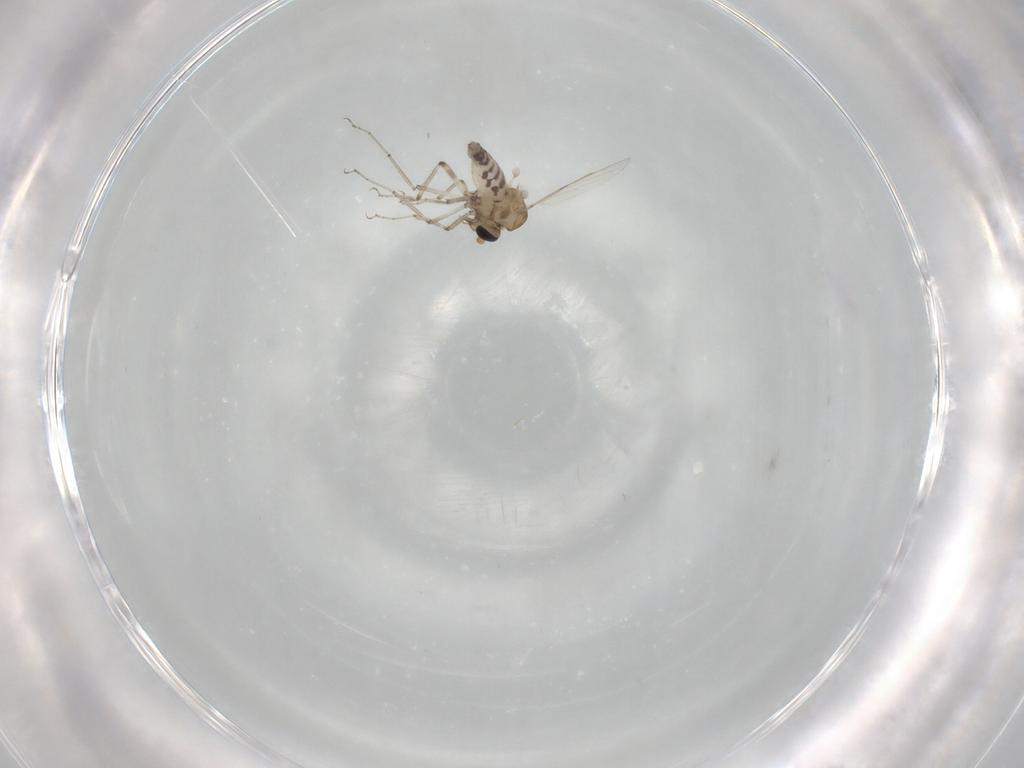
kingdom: Animalia
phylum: Arthropoda
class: Insecta
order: Diptera
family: Ceratopogonidae
